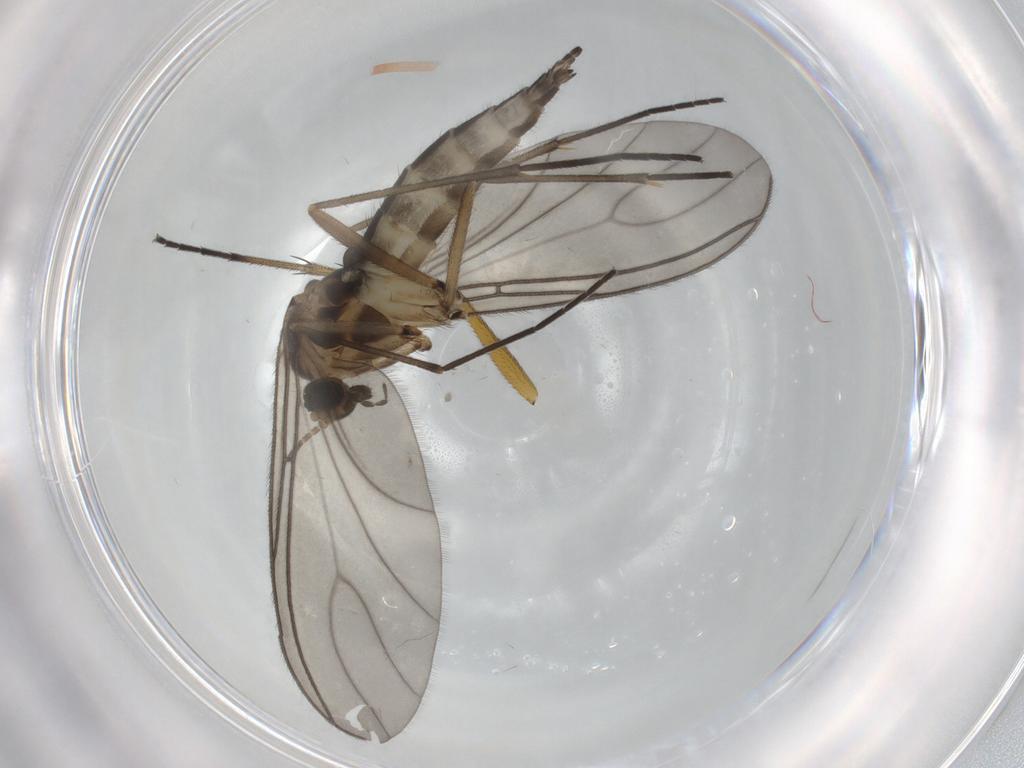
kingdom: Animalia
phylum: Arthropoda
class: Insecta
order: Diptera
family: Sciaridae
